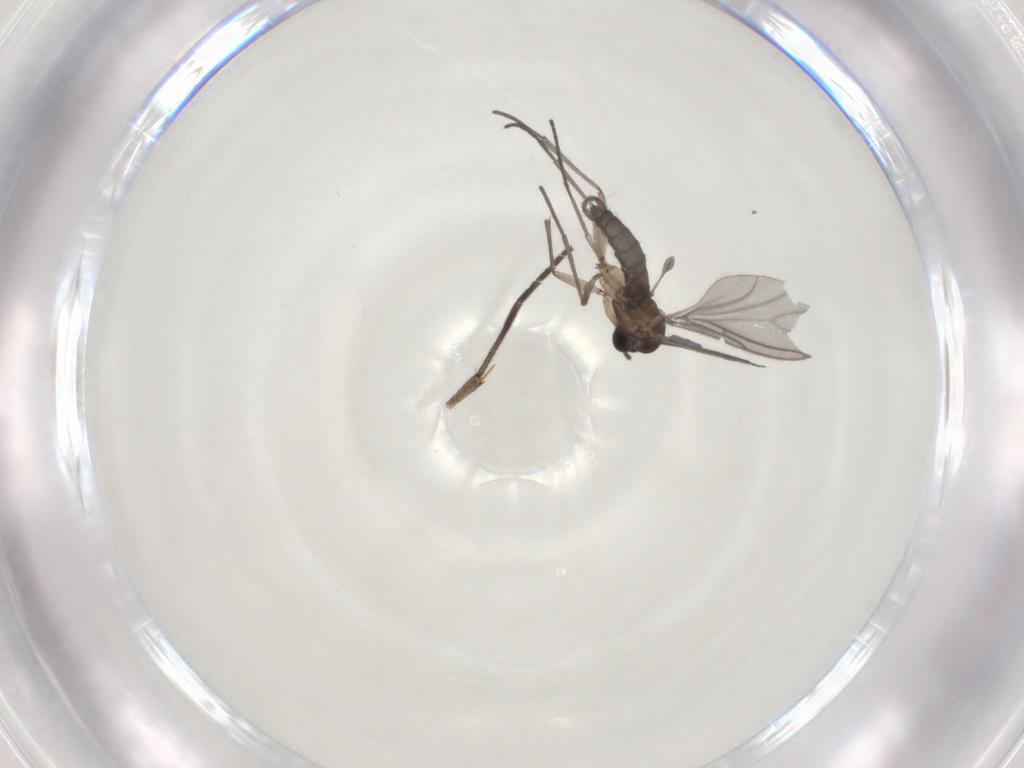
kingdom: Animalia
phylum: Arthropoda
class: Insecta
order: Diptera
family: Sciaridae
